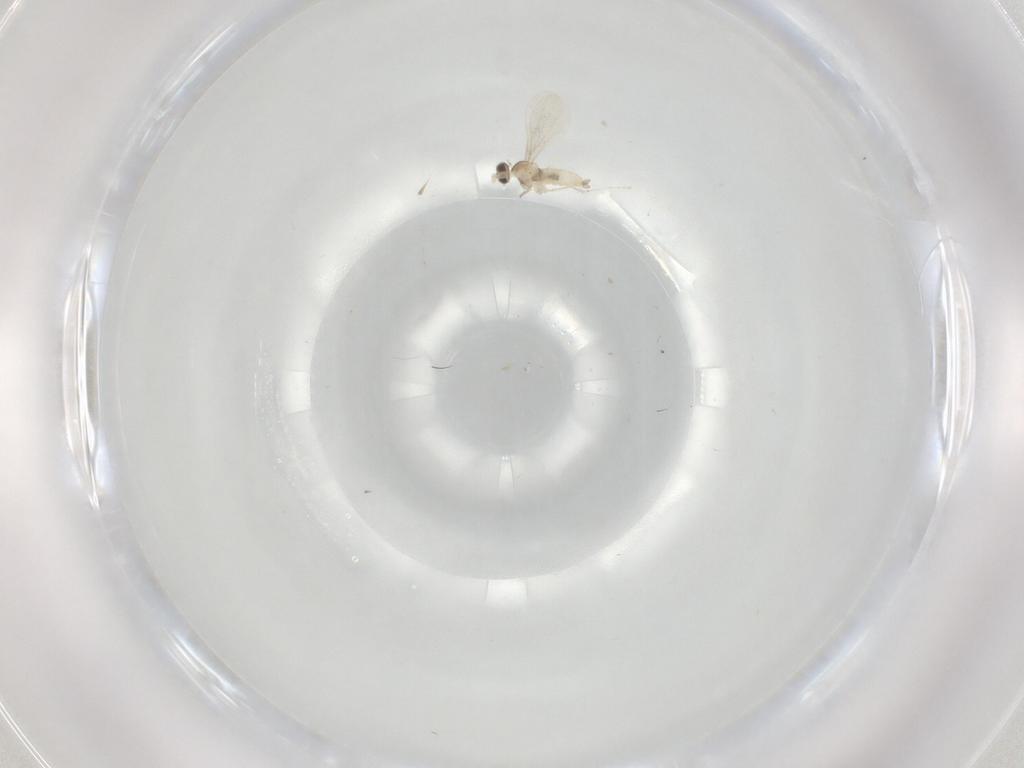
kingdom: Animalia
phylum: Arthropoda
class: Insecta
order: Diptera
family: Cecidomyiidae
